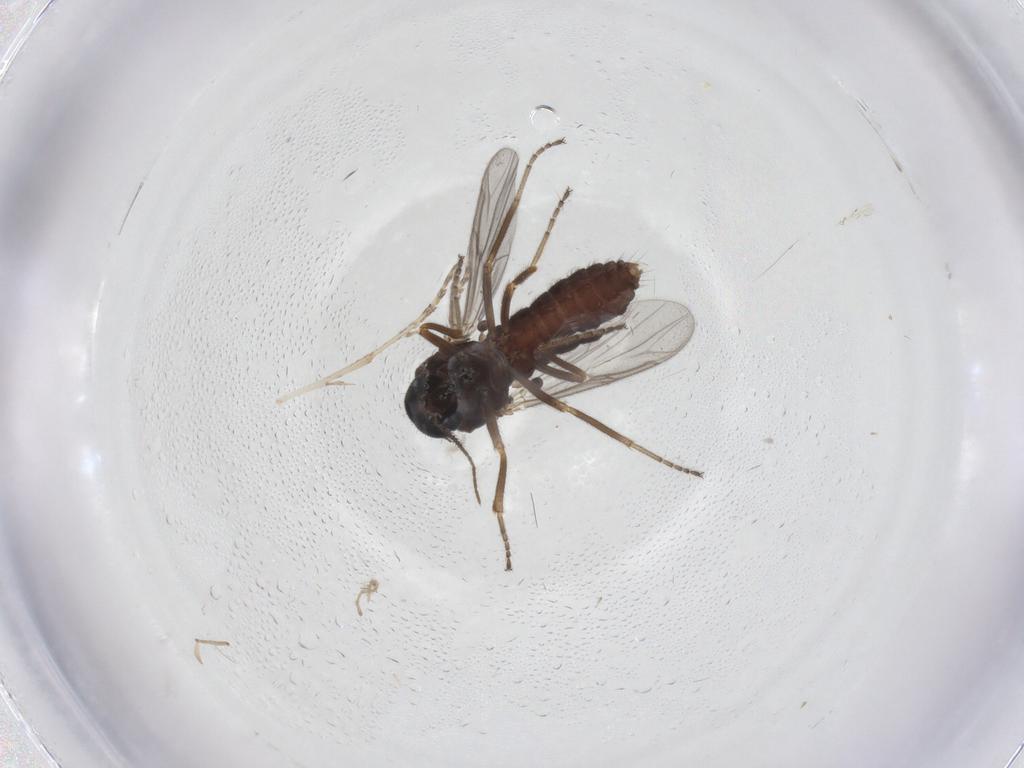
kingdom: Animalia
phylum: Arthropoda
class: Insecta
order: Diptera
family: Ceratopogonidae
